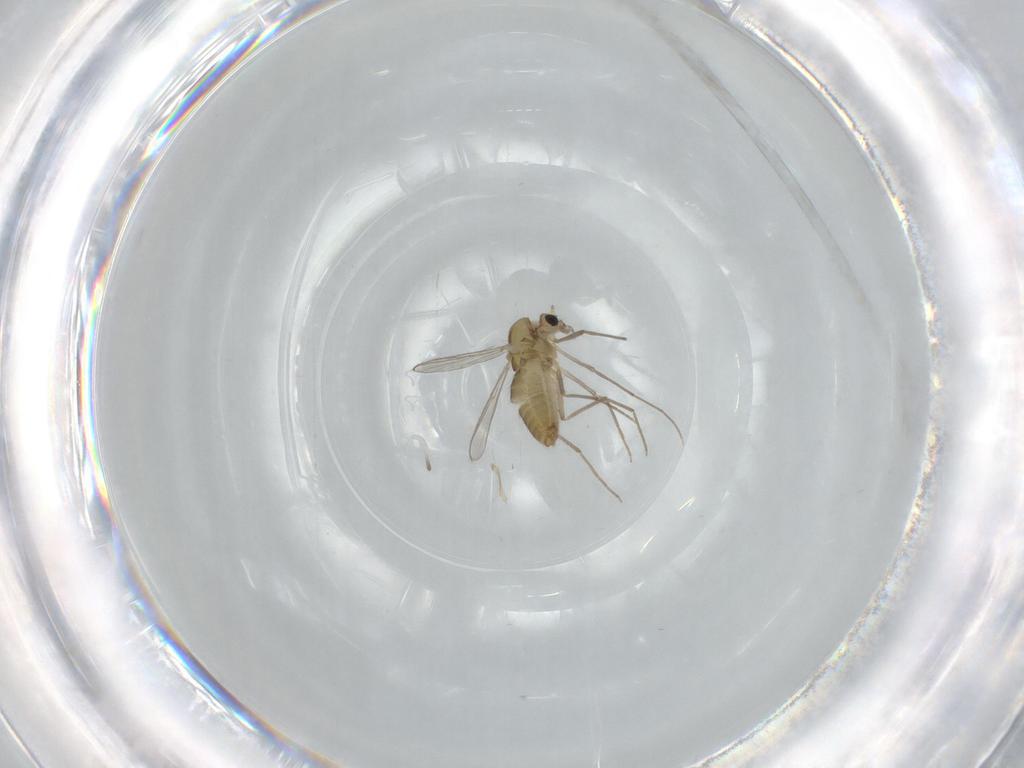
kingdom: Animalia
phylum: Arthropoda
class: Insecta
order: Diptera
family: Chironomidae
